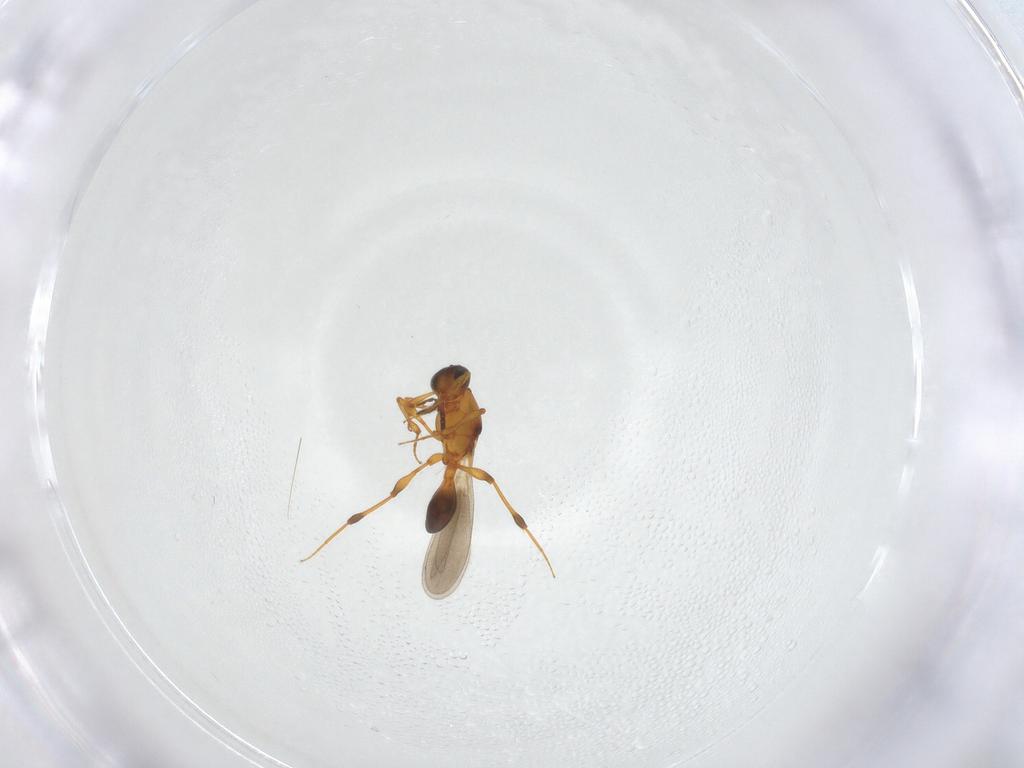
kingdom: Animalia
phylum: Arthropoda
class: Insecta
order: Hymenoptera
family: Platygastridae
